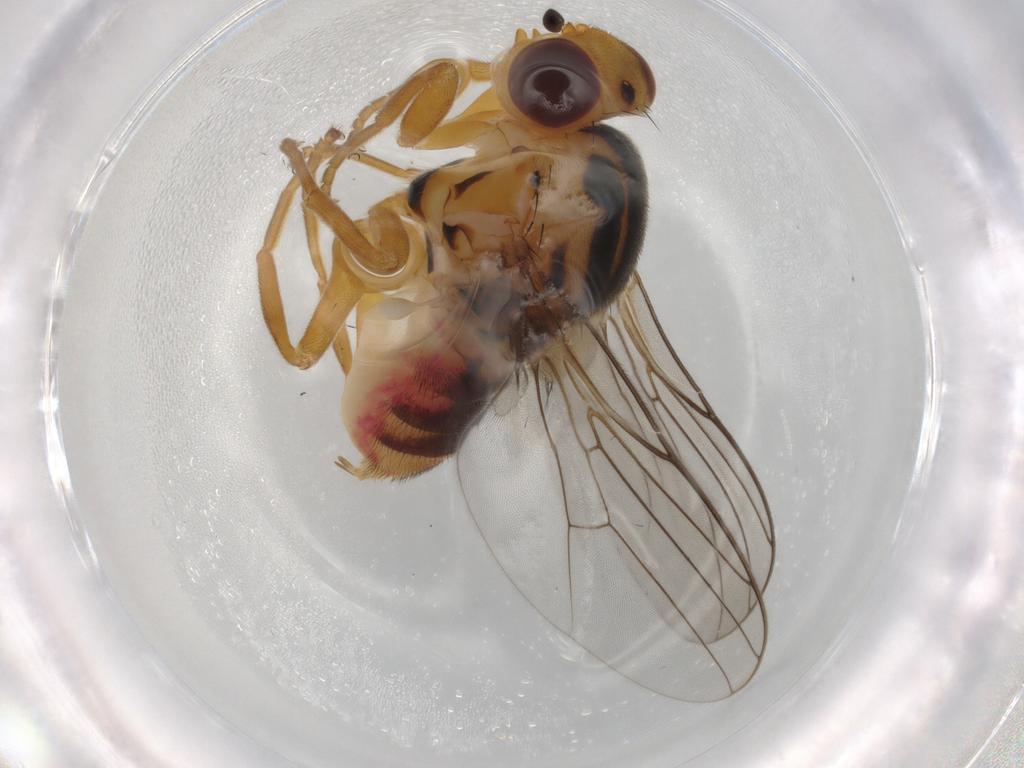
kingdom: Animalia
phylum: Arthropoda
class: Insecta
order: Diptera
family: Chloropidae
